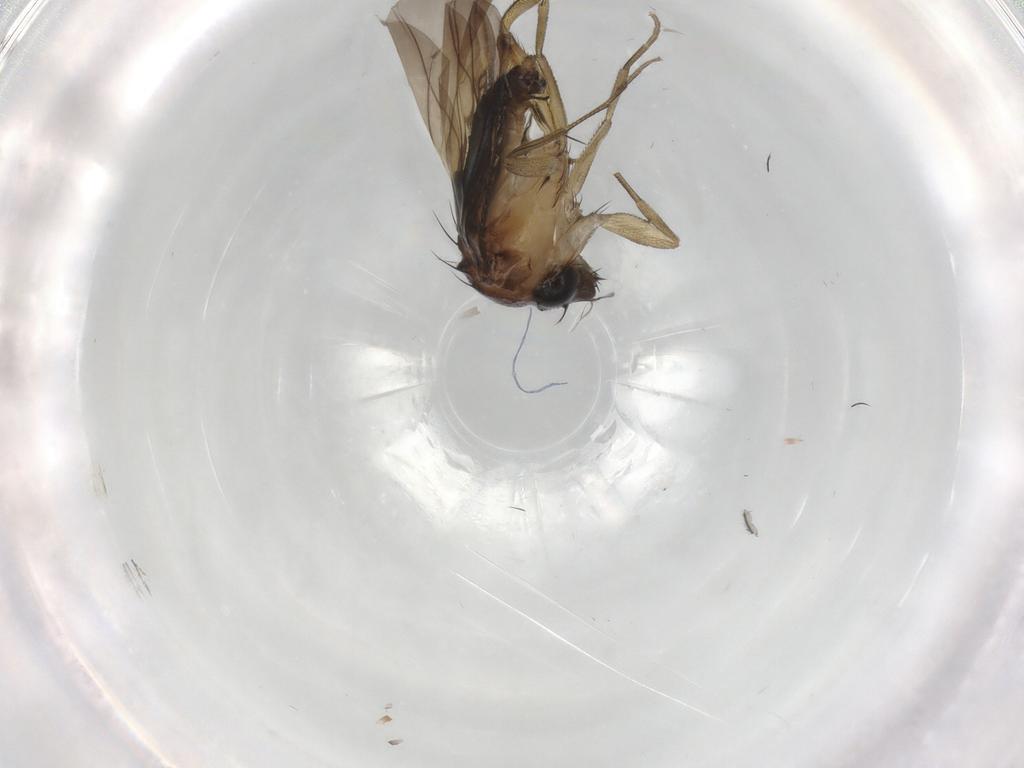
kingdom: Animalia
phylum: Arthropoda
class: Insecta
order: Diptera
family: Phoridae
